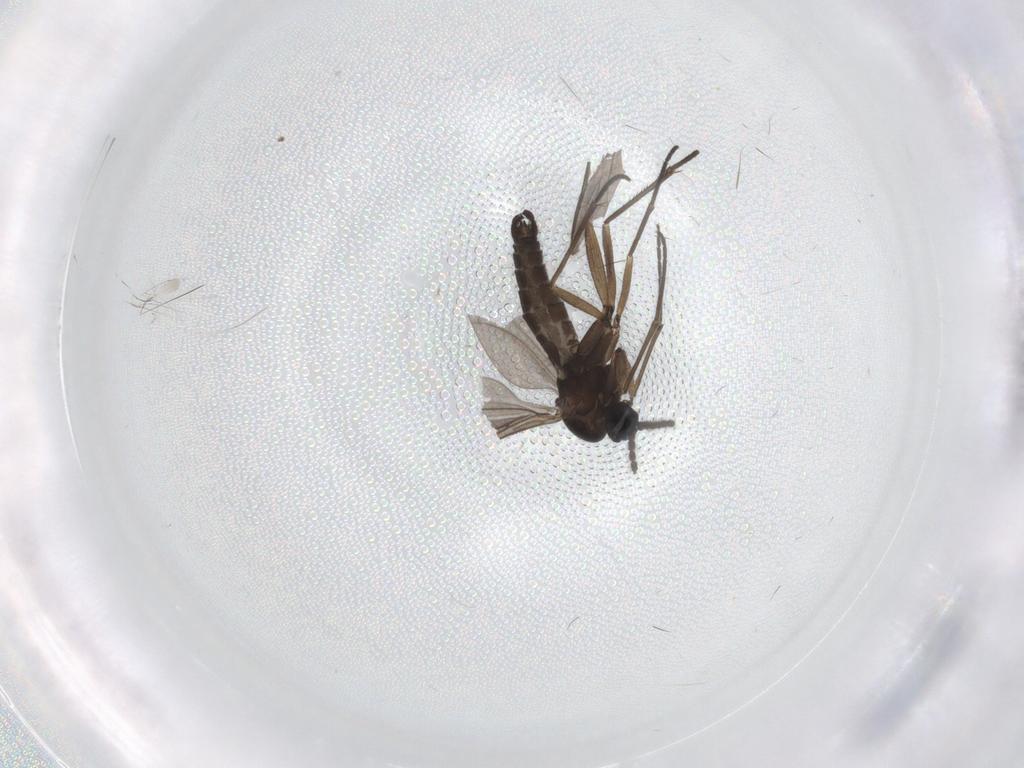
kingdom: Animalia
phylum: Arthropoda
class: Insecta
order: Diptera
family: Sciaridae
